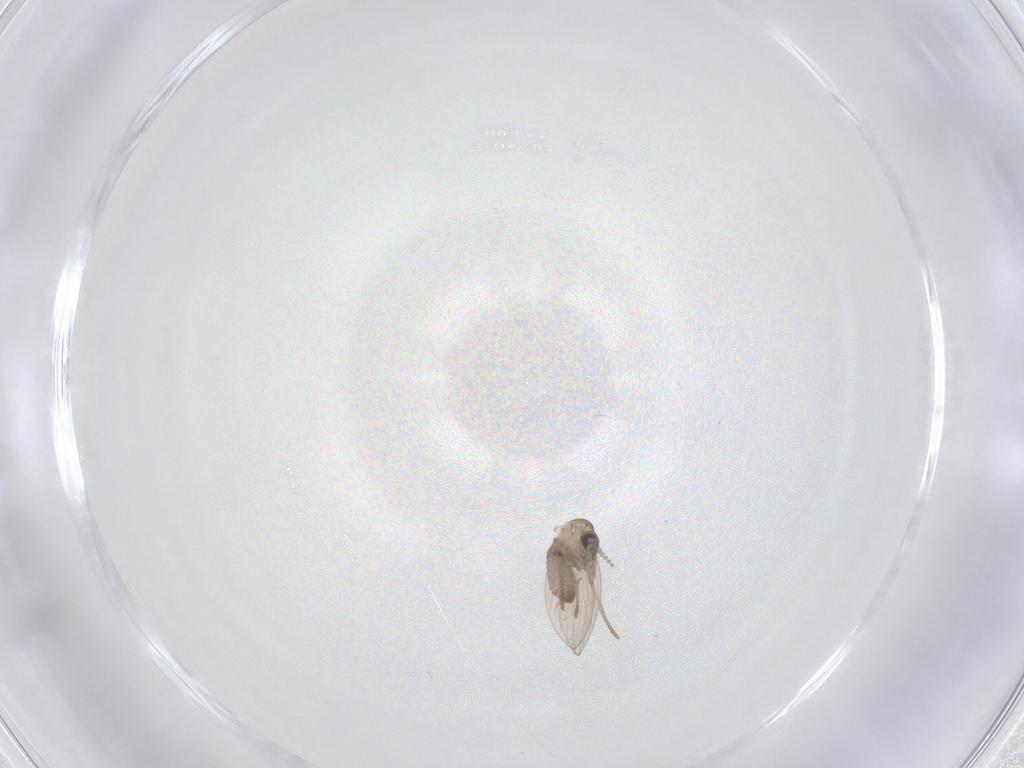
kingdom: Animalia
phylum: Arthropoda
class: Insecta
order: Diptera
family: Psychodidae
